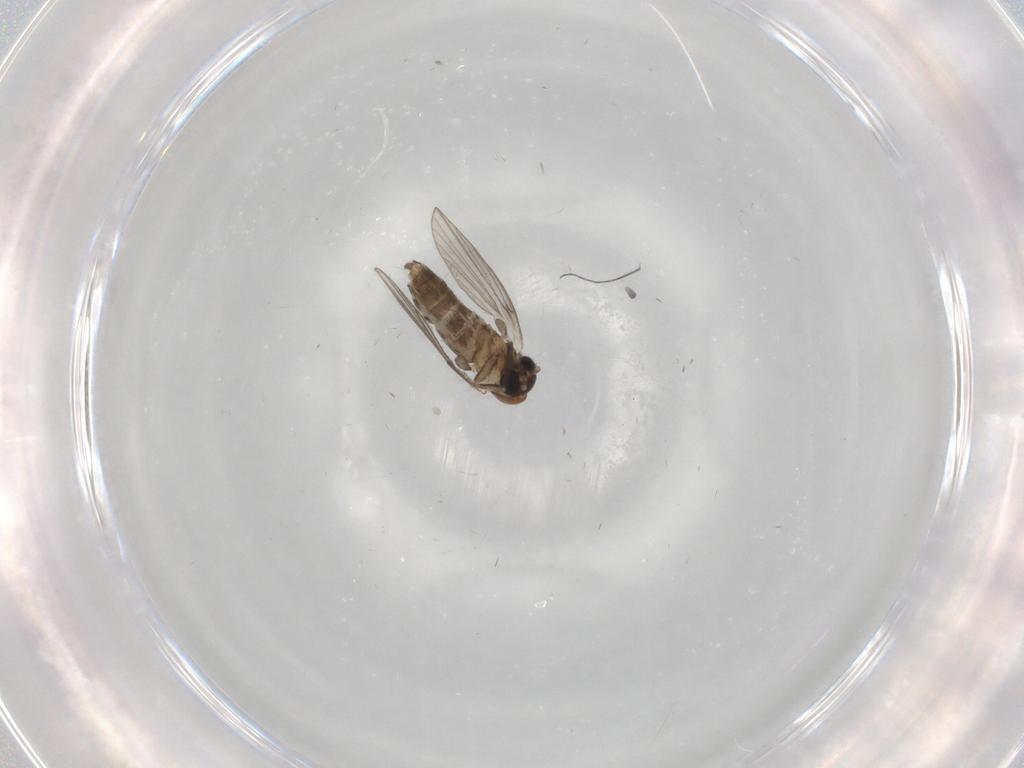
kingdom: Animalia
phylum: Arthropoda
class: Insecta
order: Diptera
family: Psychodidae
